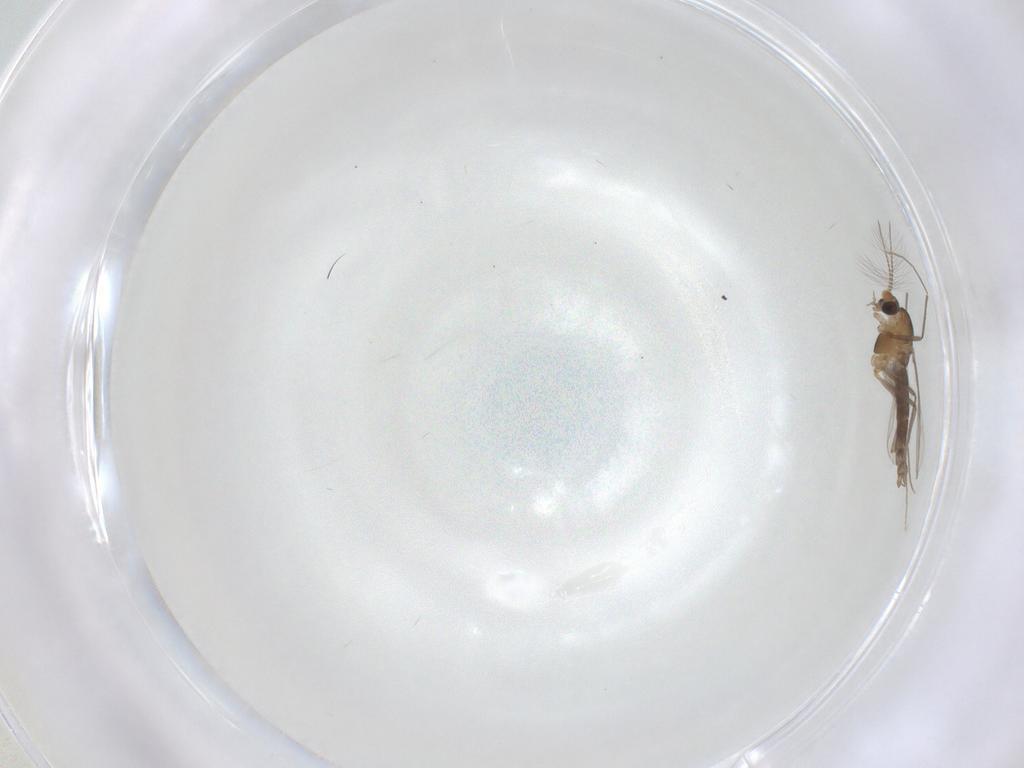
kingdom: Animalia
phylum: Arthropoda
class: Insecta
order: Diptera
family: Chironomidae
